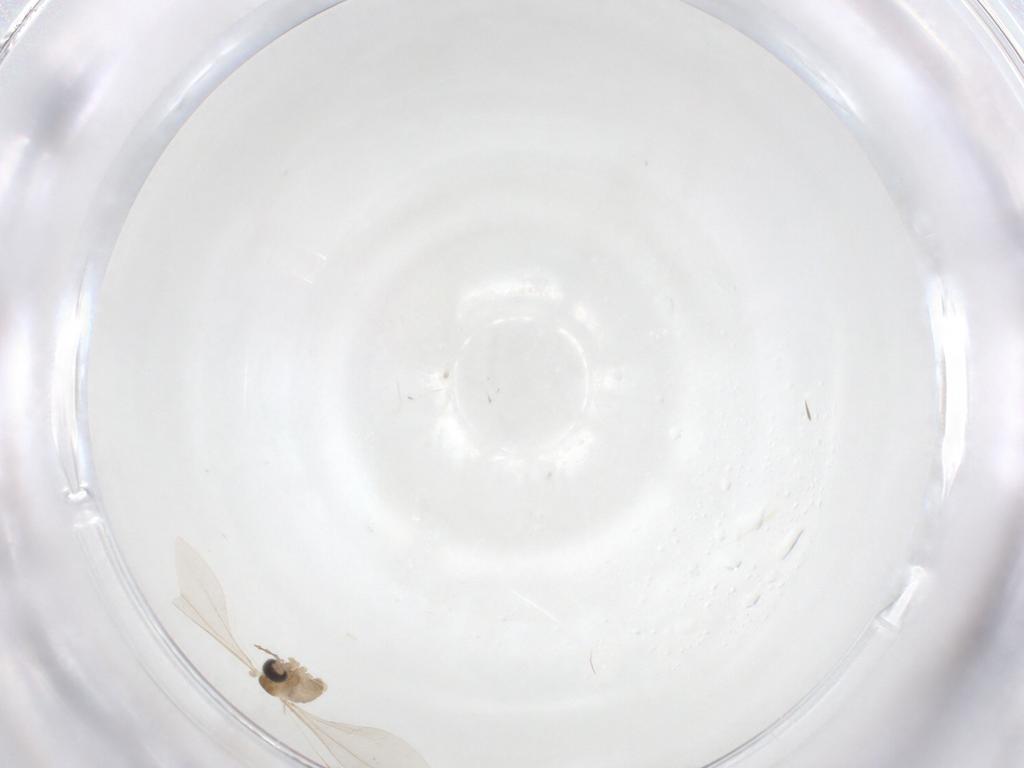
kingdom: Animalia
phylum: Arthropoda
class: Insecta
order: Diptera
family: Cecidomyiidae
